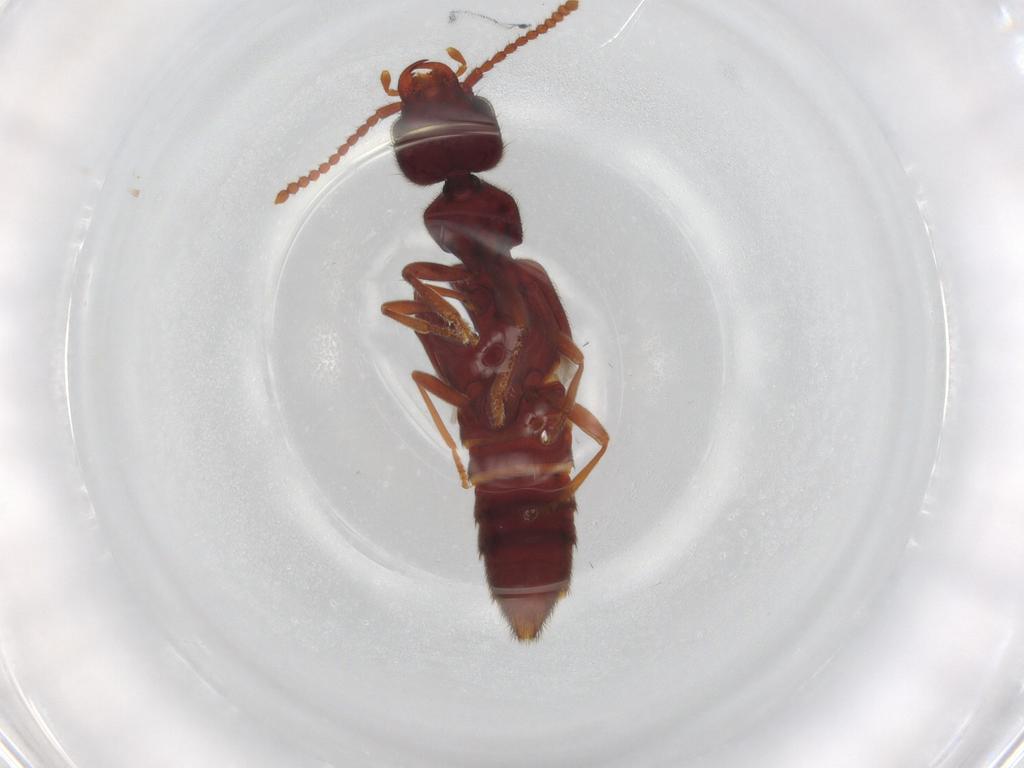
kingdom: Animalia
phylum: Arthropoda
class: Insecta
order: Coleoptera
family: Staphylinidae
